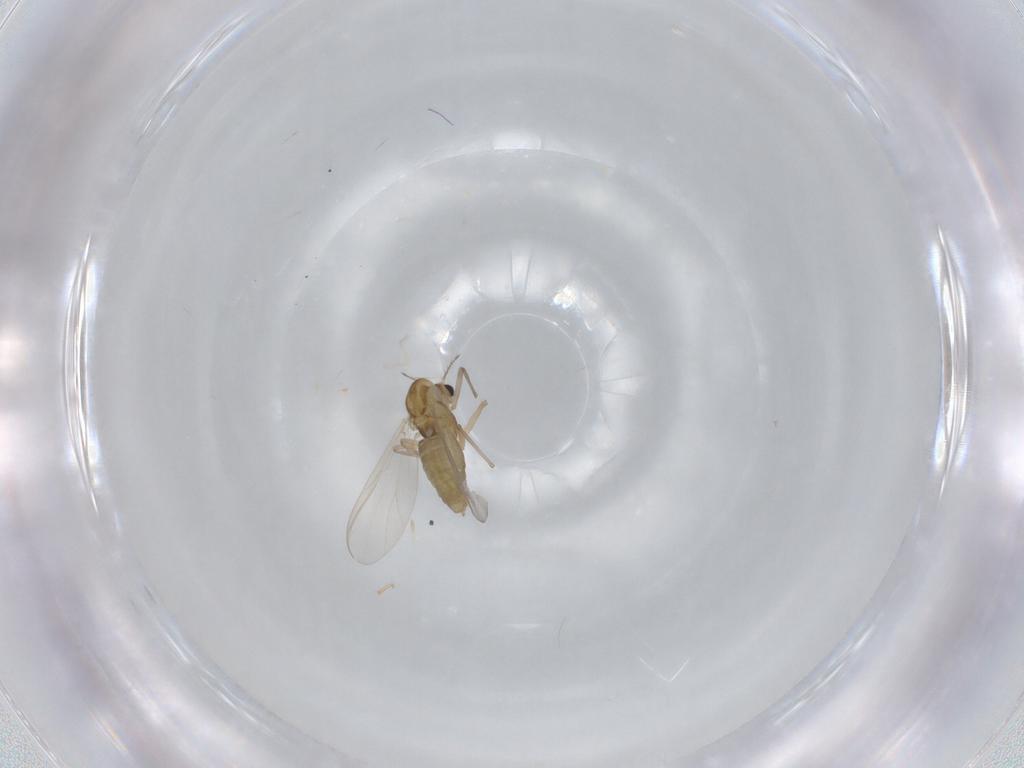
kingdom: Animalia
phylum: Arthropoda
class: Insecta
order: Diptera
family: Chironomidae
